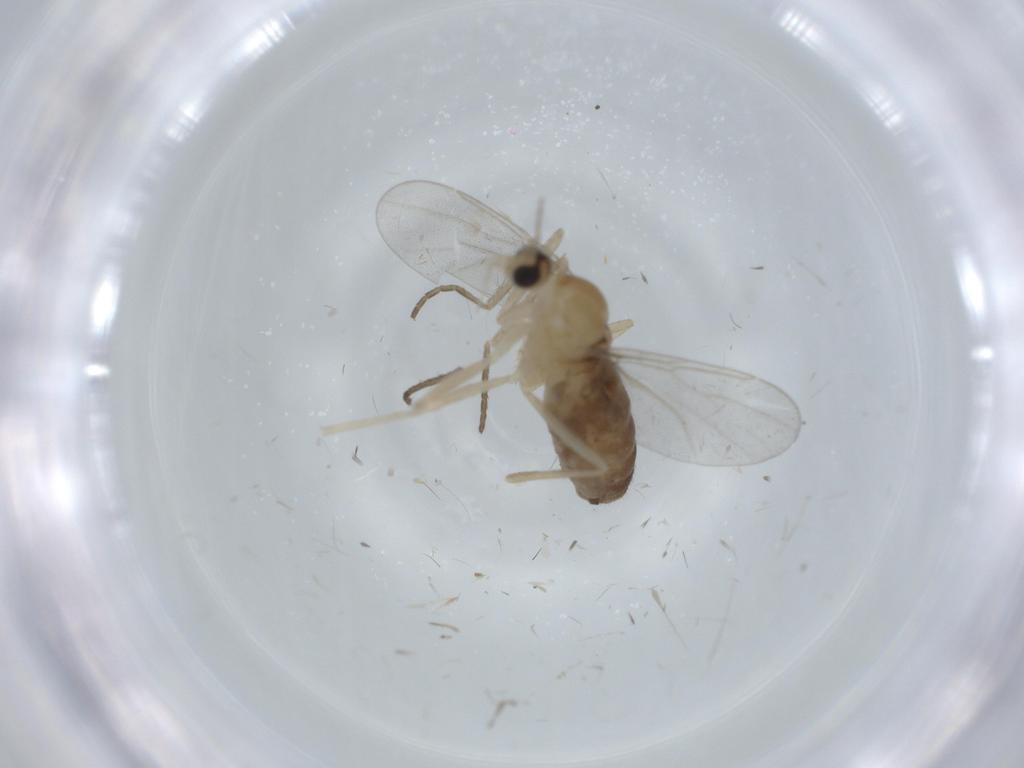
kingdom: Animalia
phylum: Arthropoda
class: Insecta
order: Diptera
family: Cecidomyiidae
